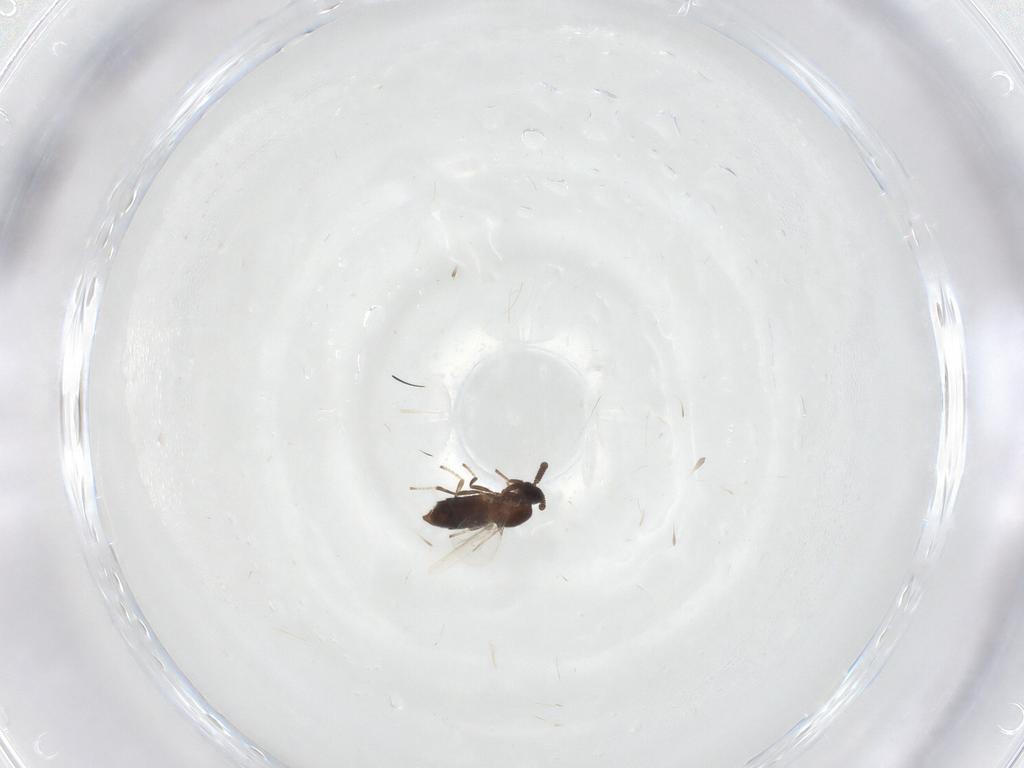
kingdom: Animalia
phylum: Arthropoda
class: Insecta
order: Diptera
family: Scatopsidae
